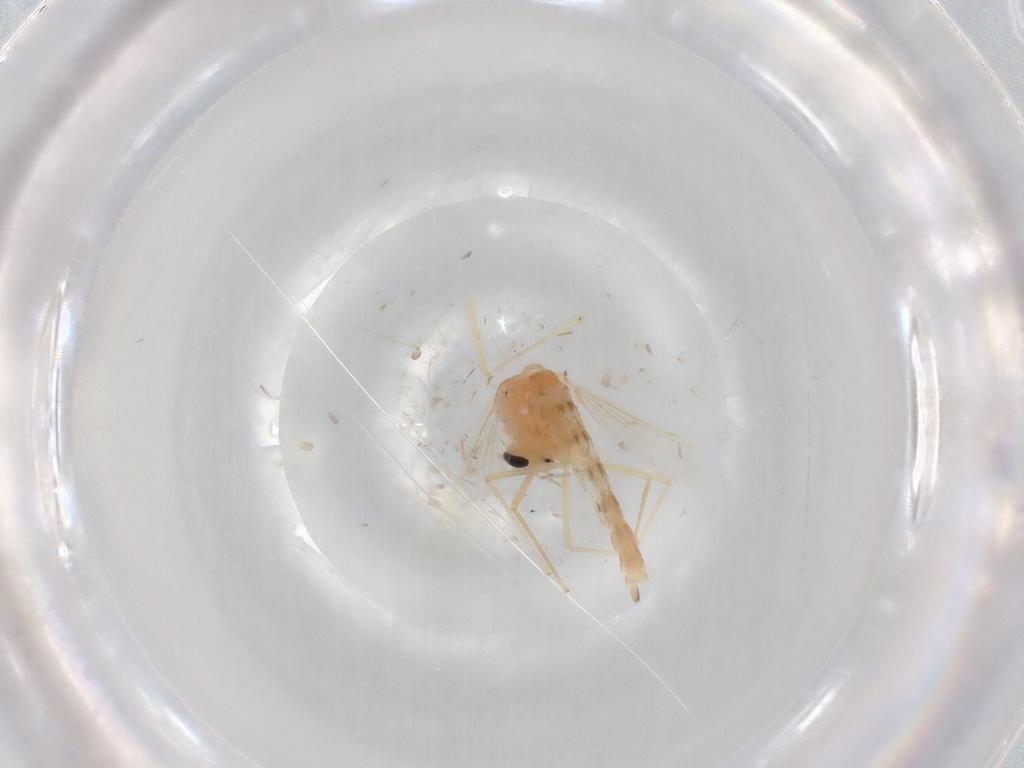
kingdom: Animalia
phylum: Arthropoda
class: Insecta
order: Diptera
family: Chironomidae
